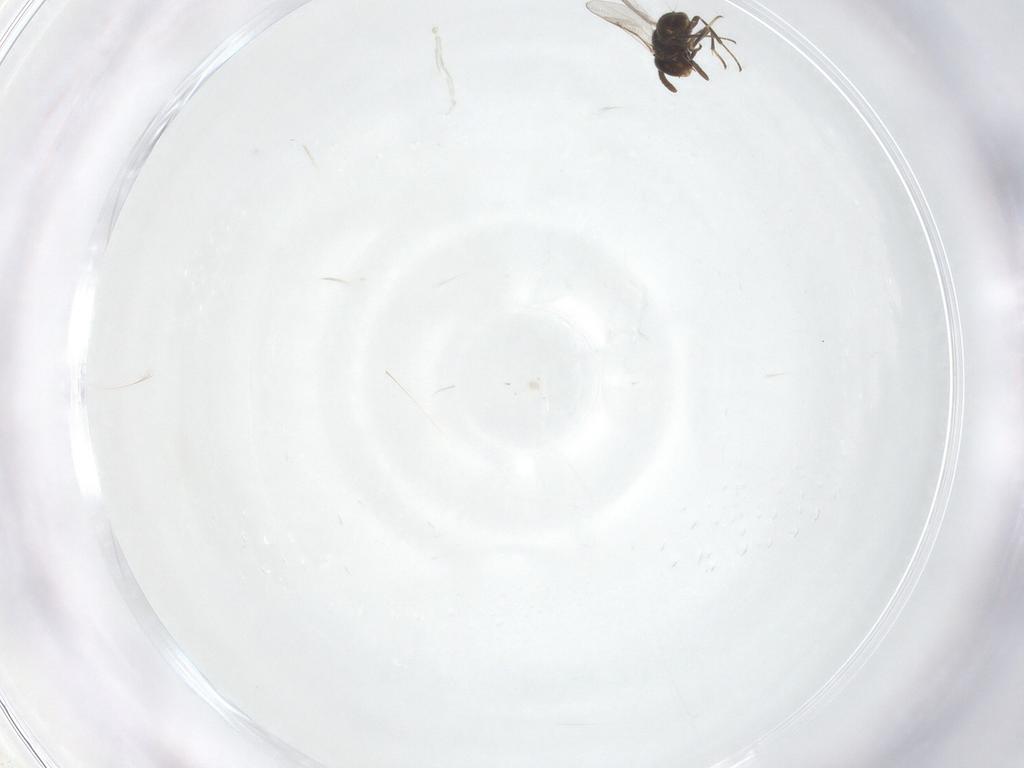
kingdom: Animalia
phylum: Arthropoda
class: Insecta
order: Hymenoptera
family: Encyrtidae
